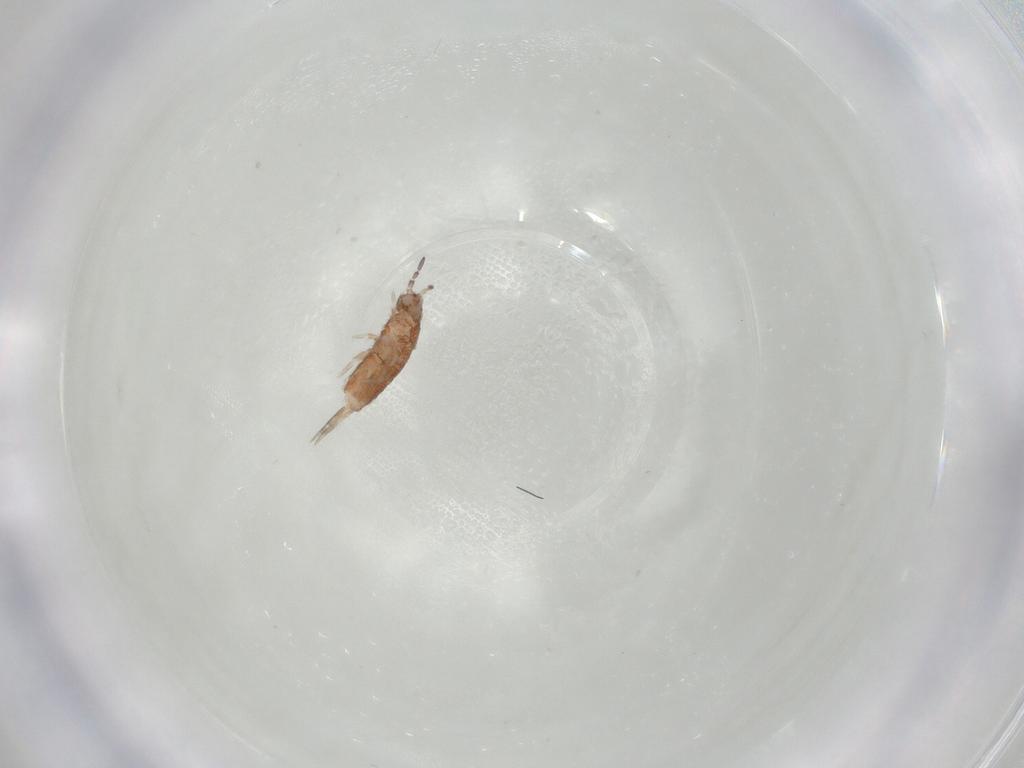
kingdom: Animalia
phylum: Arthropoda
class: Collembola
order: Entomobryomorpha
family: Entomobryidae
